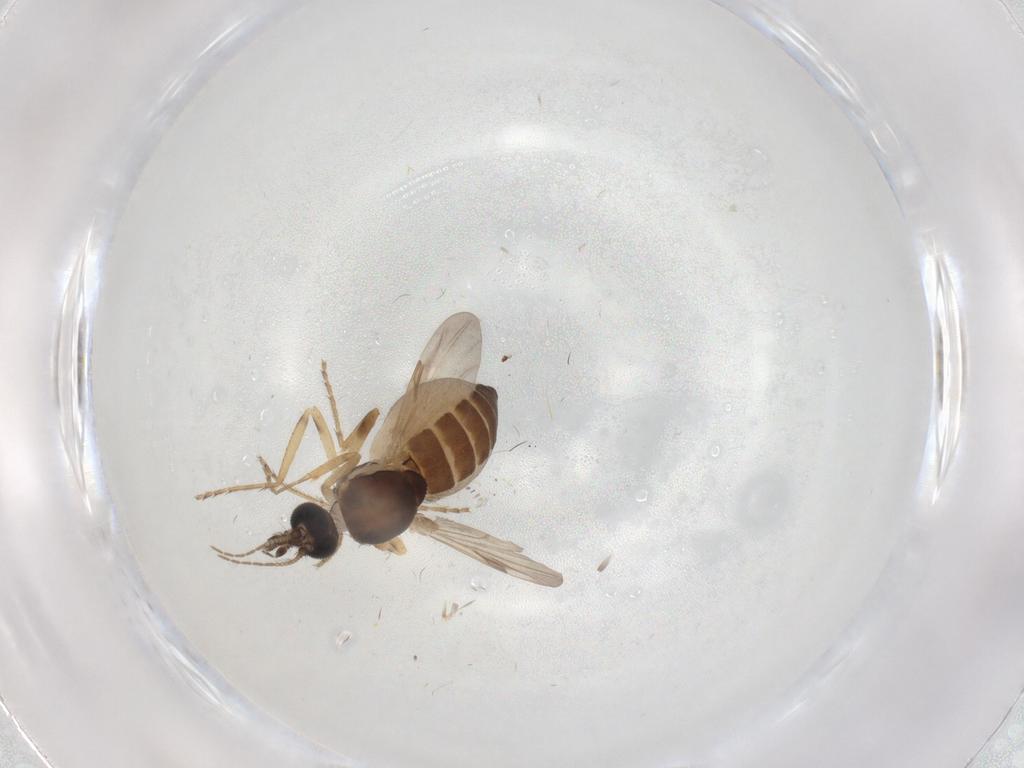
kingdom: Animalia
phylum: Arthropoda
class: Insecta
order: Diptera
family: Ceratopogonidae
